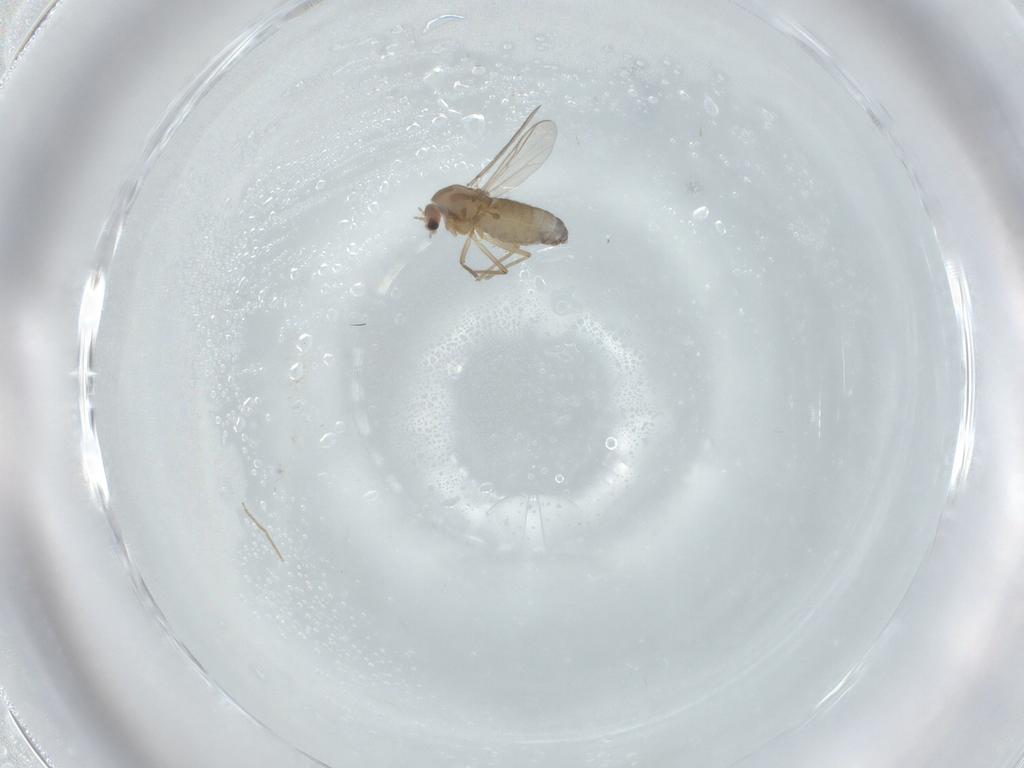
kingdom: Animalia
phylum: Arthropoda
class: Insecta
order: Diptera
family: Chironomidae
